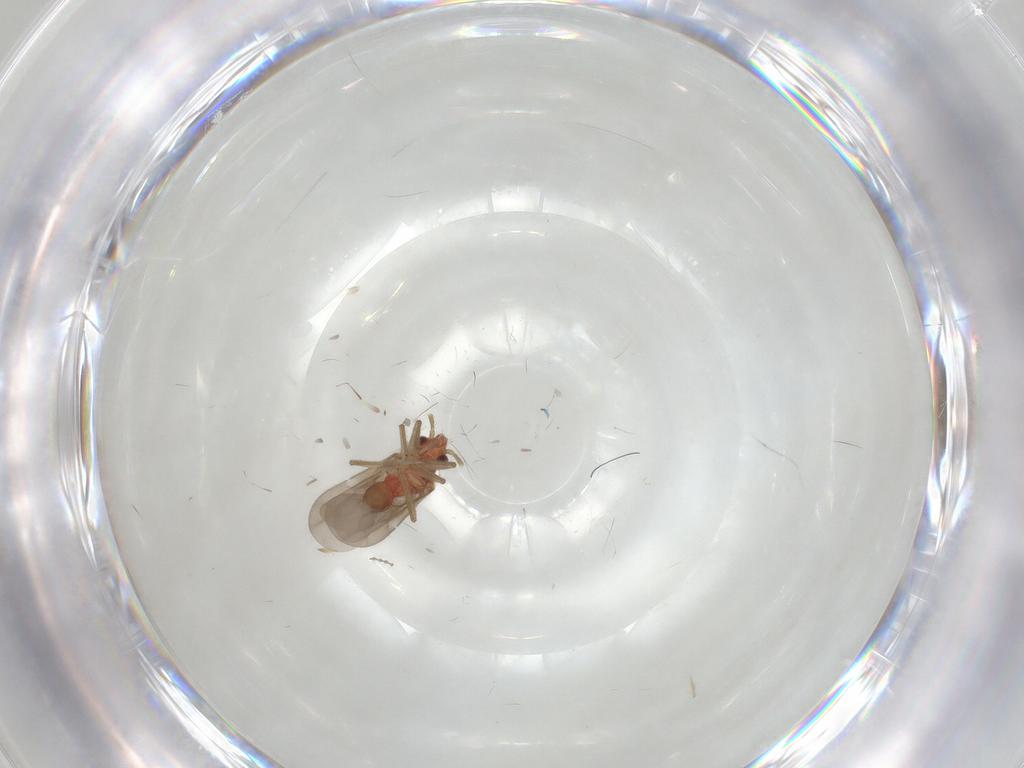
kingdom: Animalia
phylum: Arthropoda
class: Insecta
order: Hemiptera
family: Ceratocombidae
